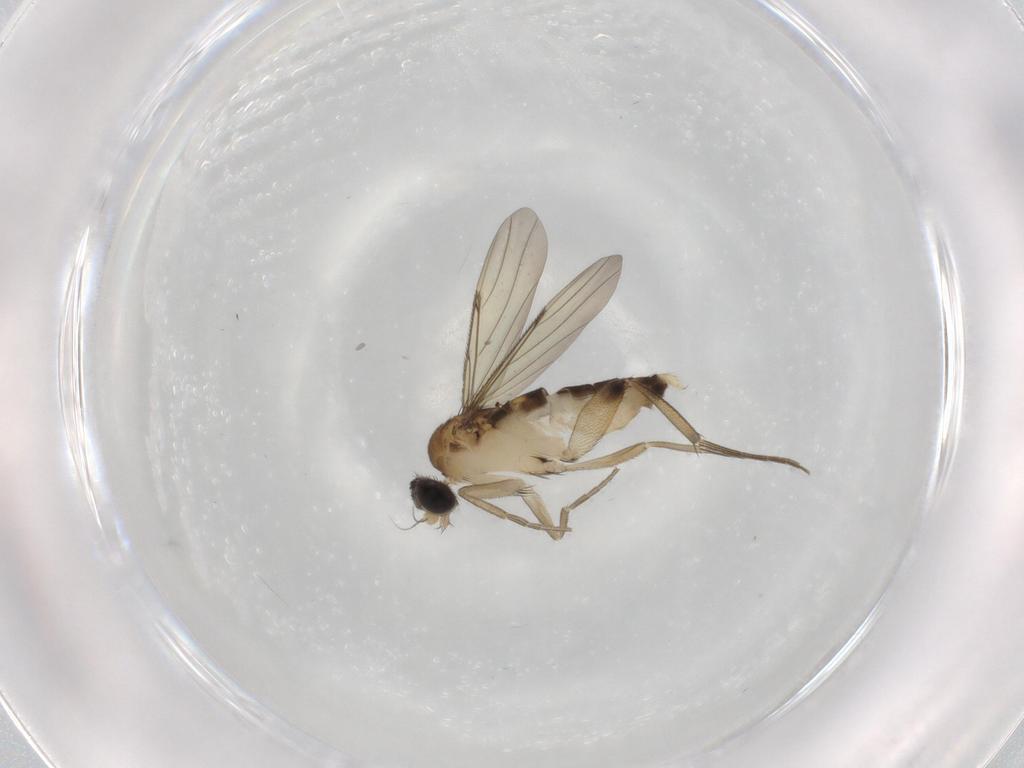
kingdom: Animalia
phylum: Arthropoda
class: Insecta
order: Diptera
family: Phoridae
